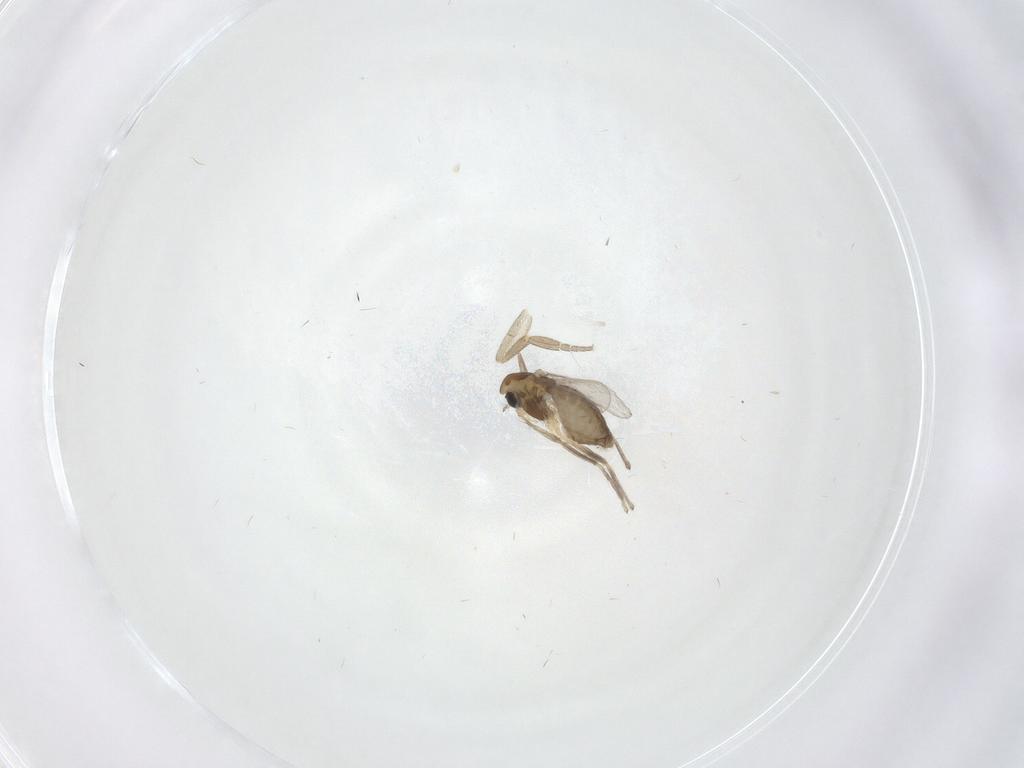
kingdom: Animalia
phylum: Arthropoda
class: Insecta
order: Diptera
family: Chironomidae
